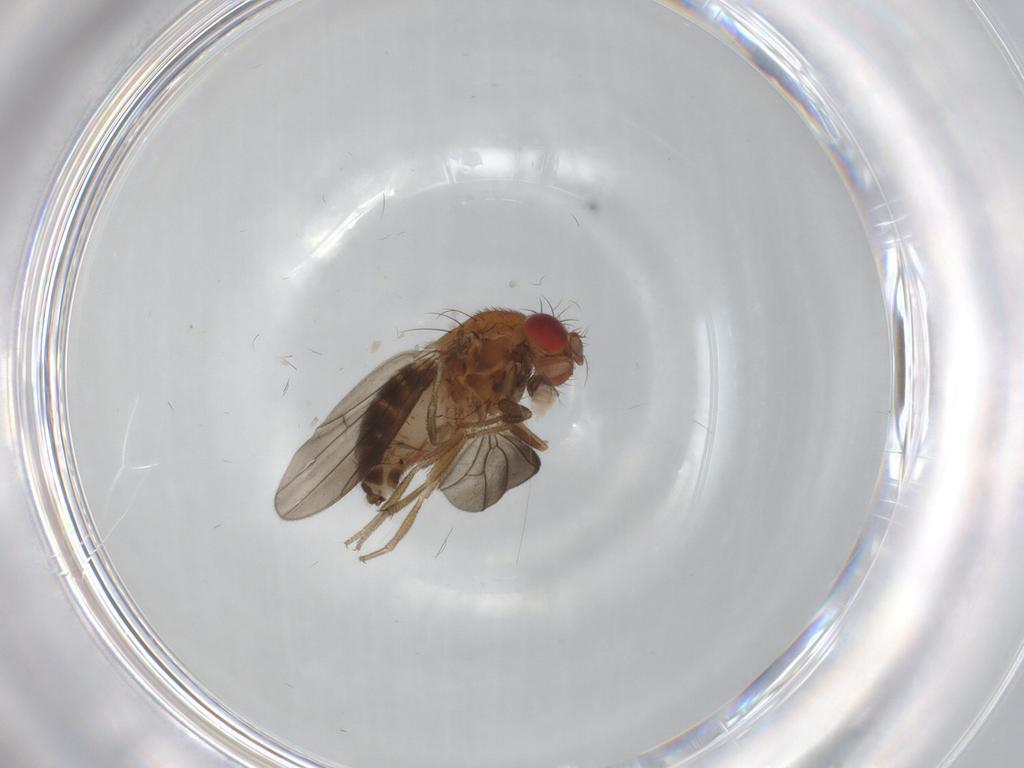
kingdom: Animalia
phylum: Arthropoda
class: Insecta
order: Diptera
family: Drosophilidae
